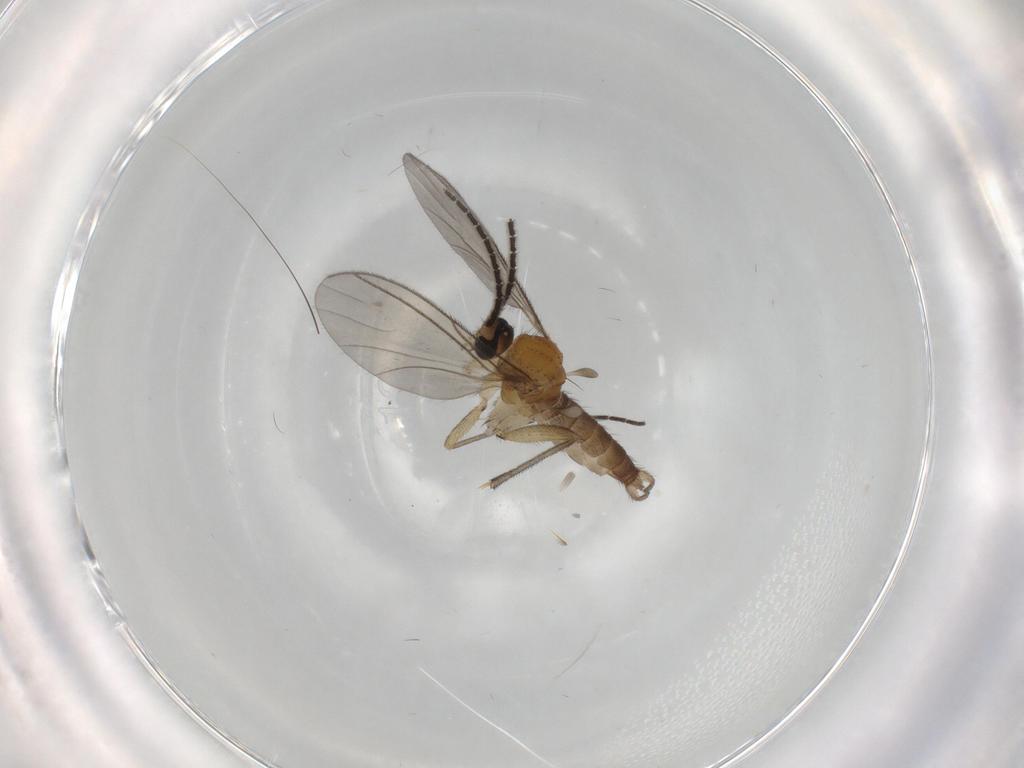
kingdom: Animalia
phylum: Arthropoda
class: Insecta
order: Diptera
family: Sciaridae
